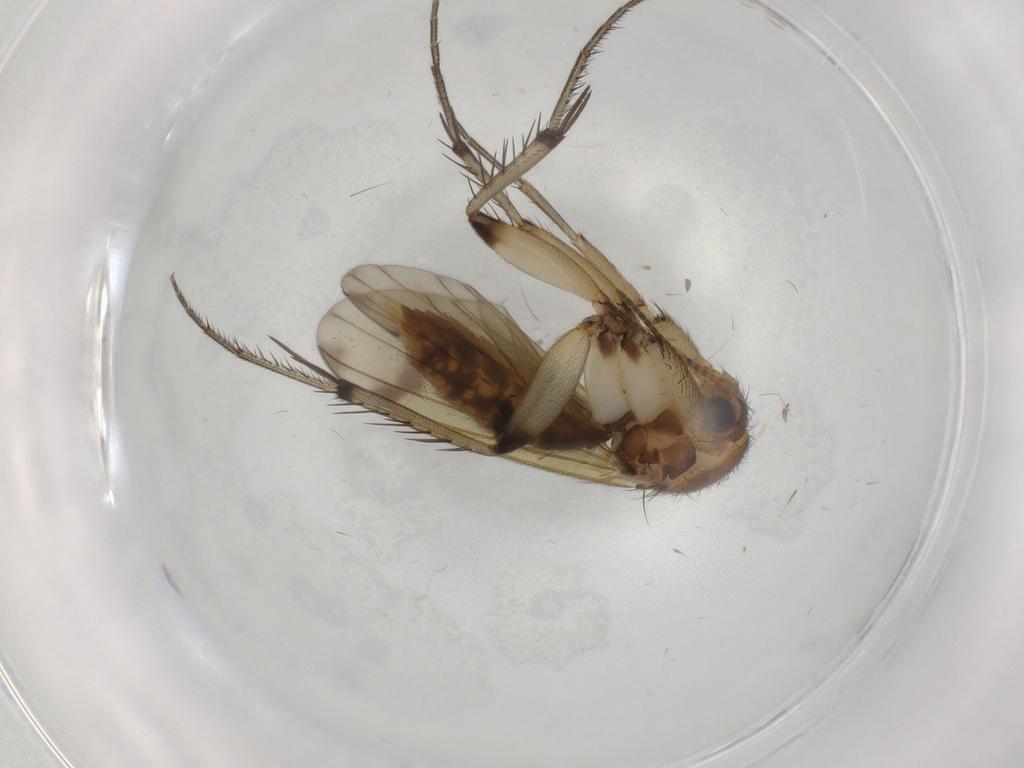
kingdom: Animalia
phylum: Arthropoda
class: Insecta
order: Diptera
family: Mycetophilidae
